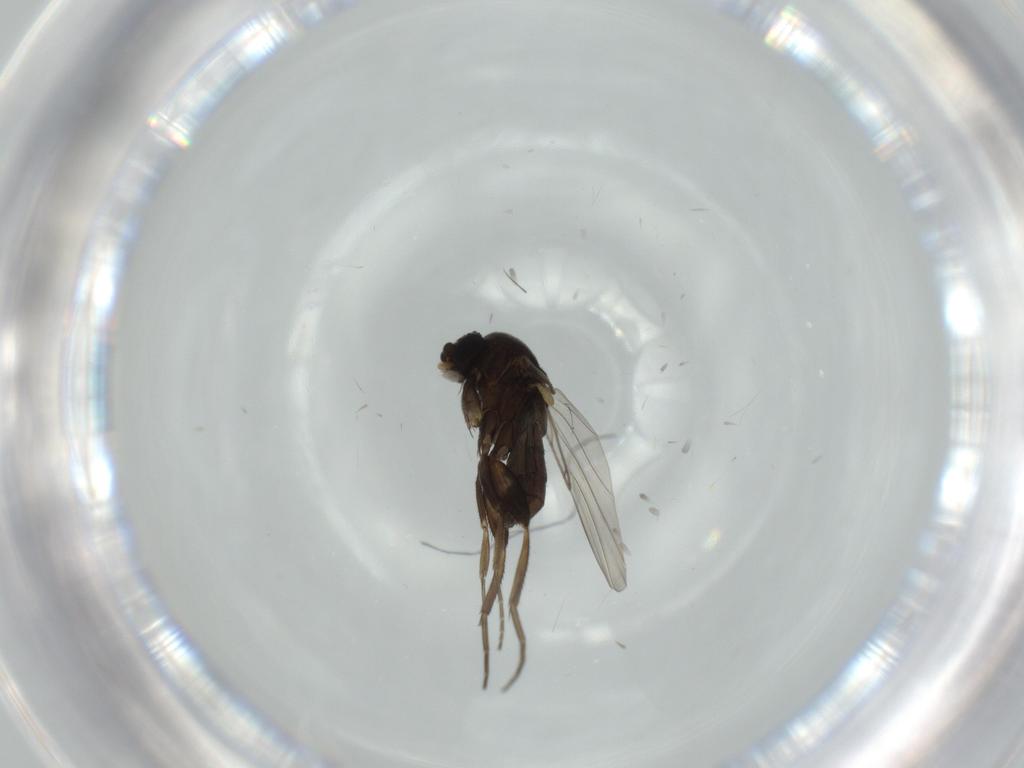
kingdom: Animalia
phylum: Arthropoda
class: Insecta
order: Diptera
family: Phoridae
